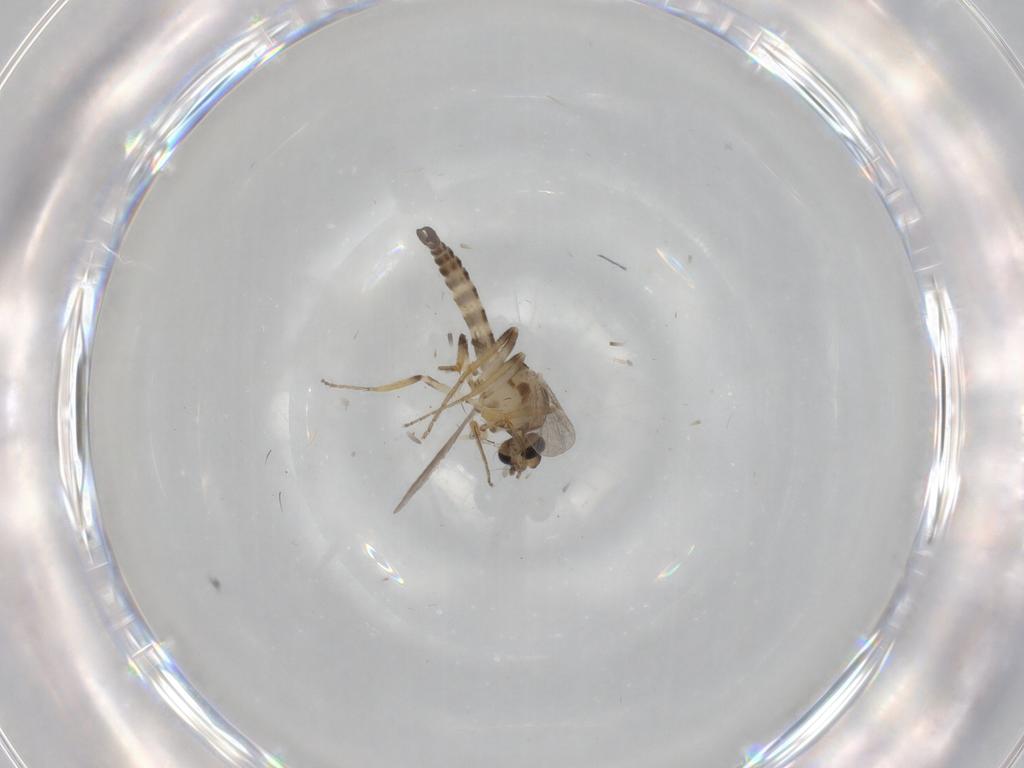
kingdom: Animalia
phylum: Arthropoda
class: Insecta
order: Diptera
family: Ceratopogonidae
